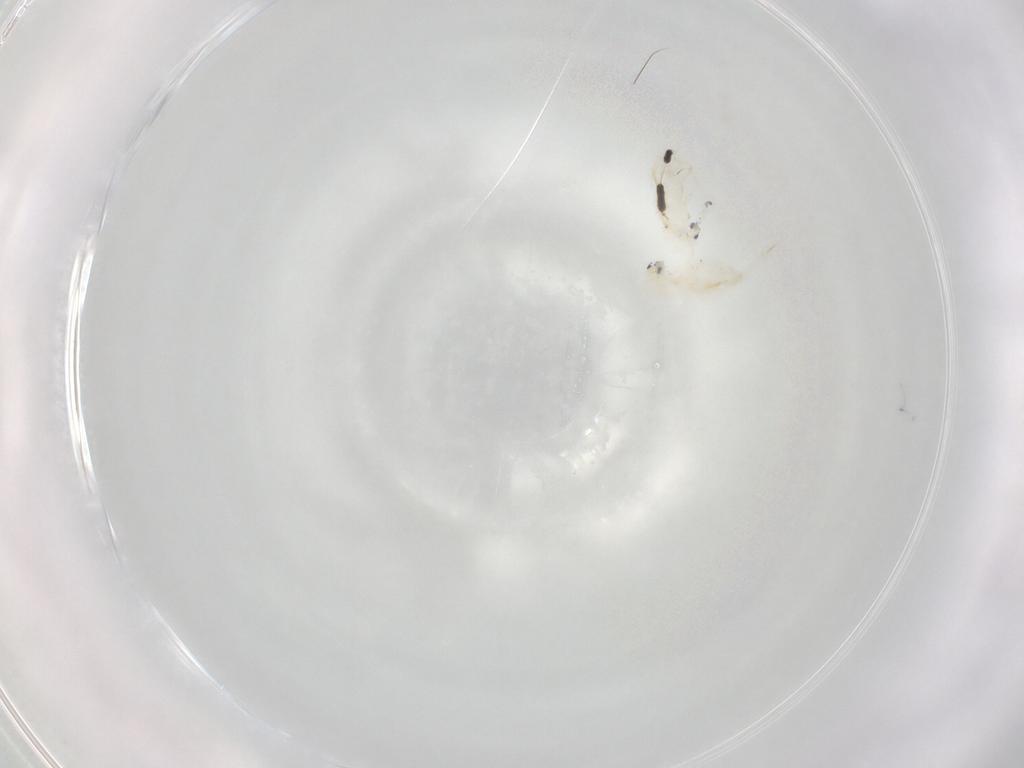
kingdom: Animalia
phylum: Arthropoda
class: Collembola
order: Entomobryomorpha
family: Entomobryidae
